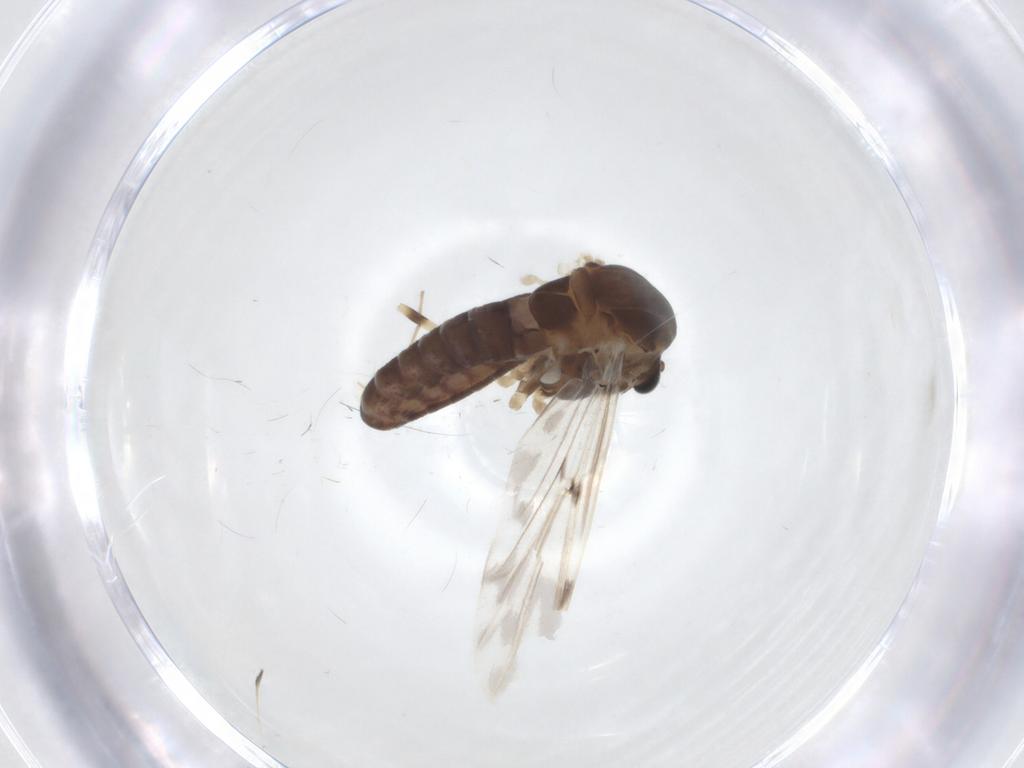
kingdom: Animalia
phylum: Arthropoda
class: Insecta
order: Diptera
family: Chironomidae
